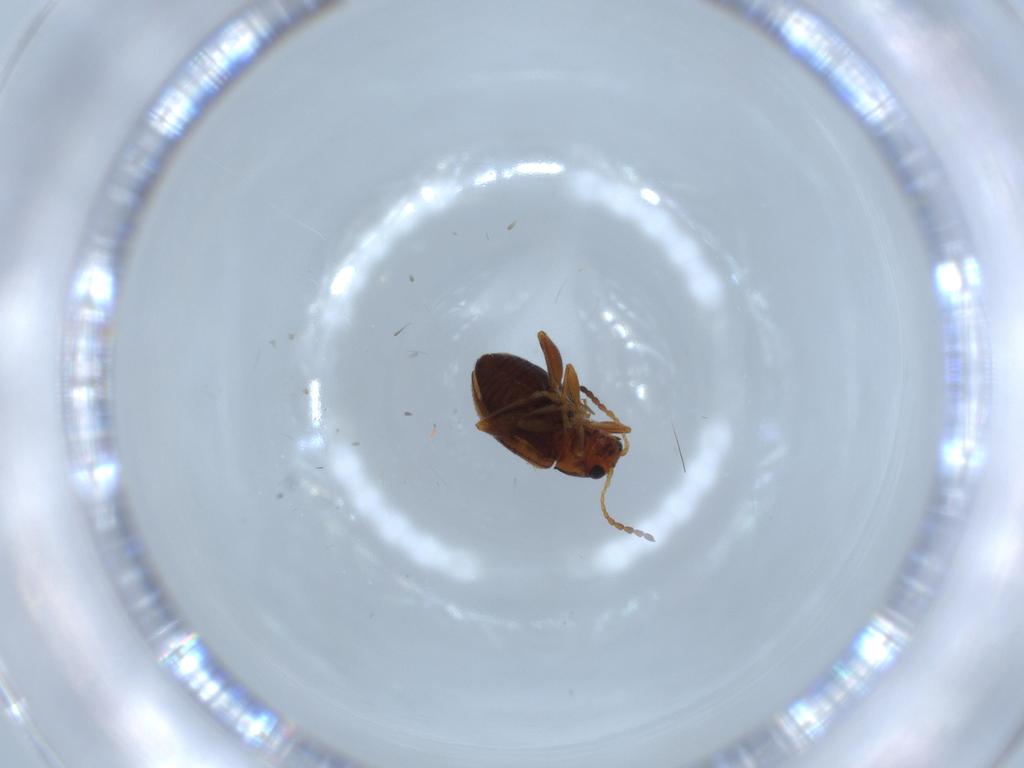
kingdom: Animalia
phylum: Arthropoda
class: Insecta
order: Coleoptera
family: Chrysomelidae
